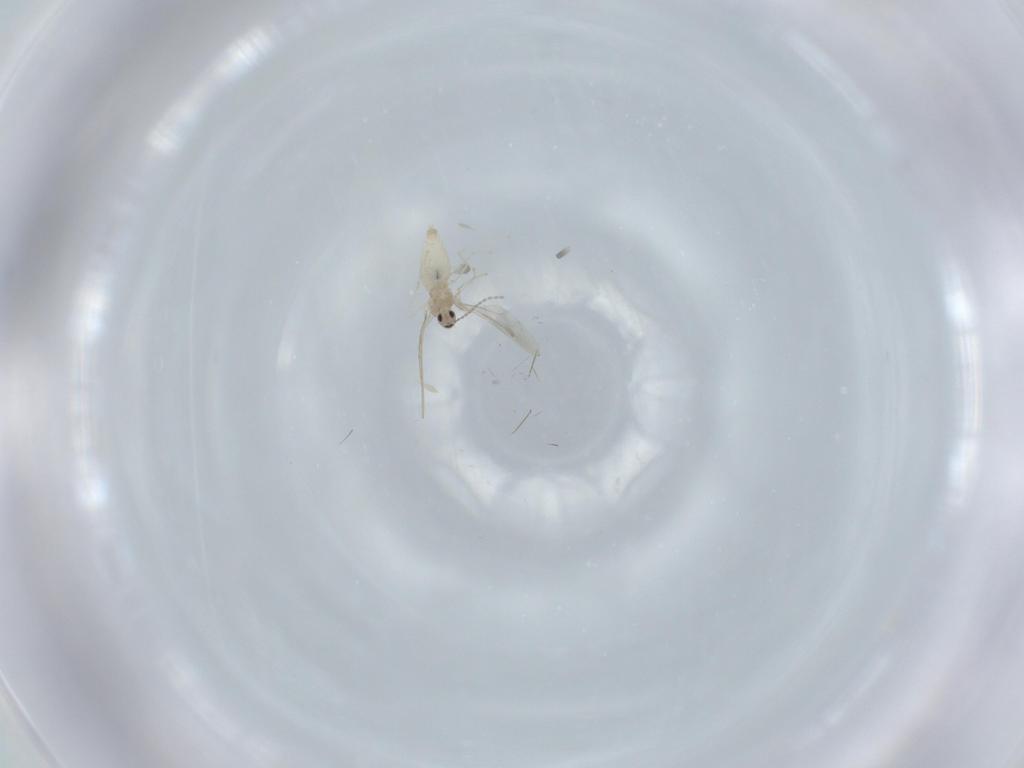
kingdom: Animalia
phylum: Arthropoda
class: Insecta
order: Diptera
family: Cecidomyiidae
